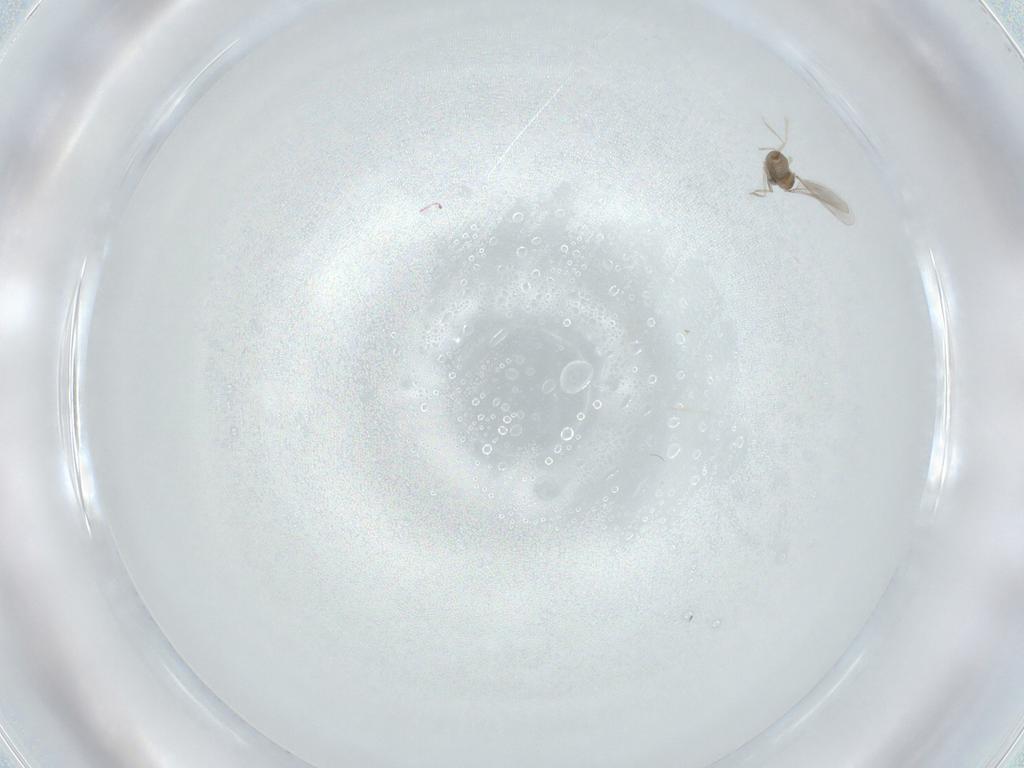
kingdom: Animalia
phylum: Arthropoda
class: Insecta
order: Diptera
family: Cecidomyiidae
